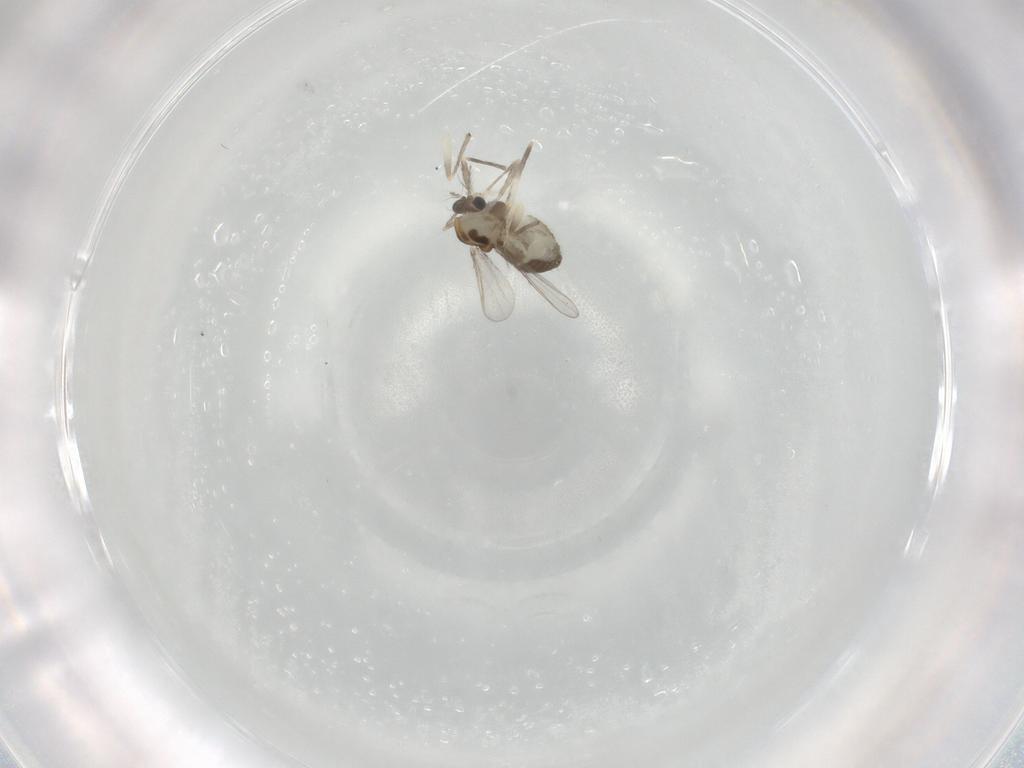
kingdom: Animalia
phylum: Arthropoda
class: Insecta
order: Diptera
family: Chironomidae
